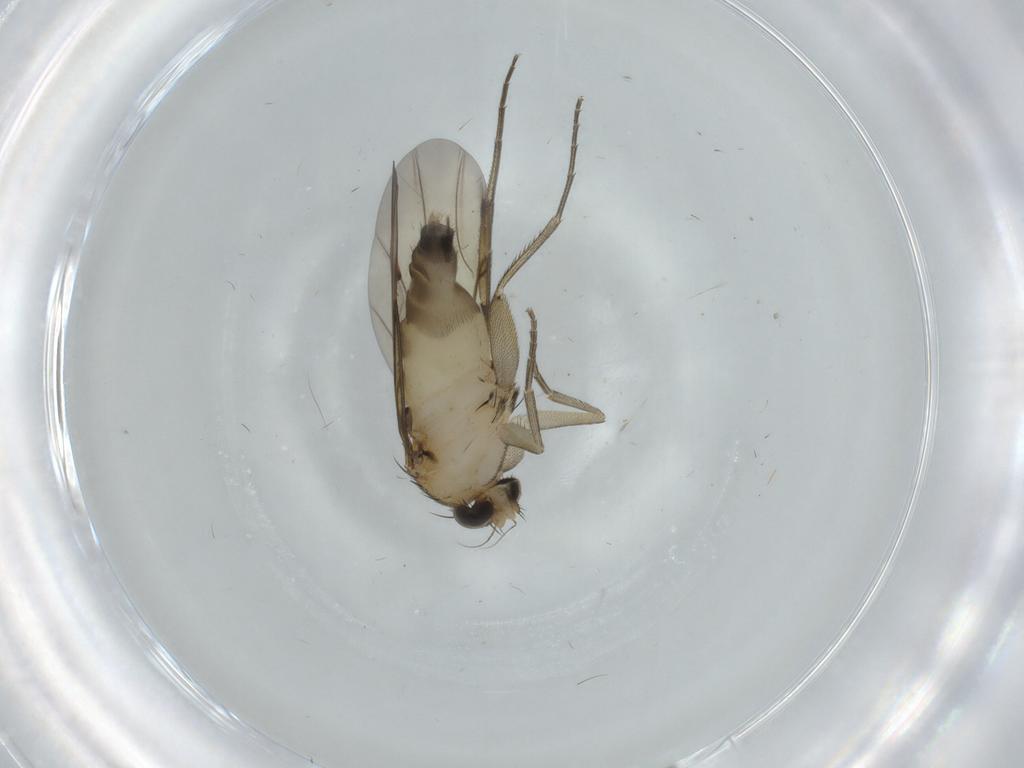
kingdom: Animalia
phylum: Arthropoda
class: Insecta
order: Diptera
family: Phoridae
